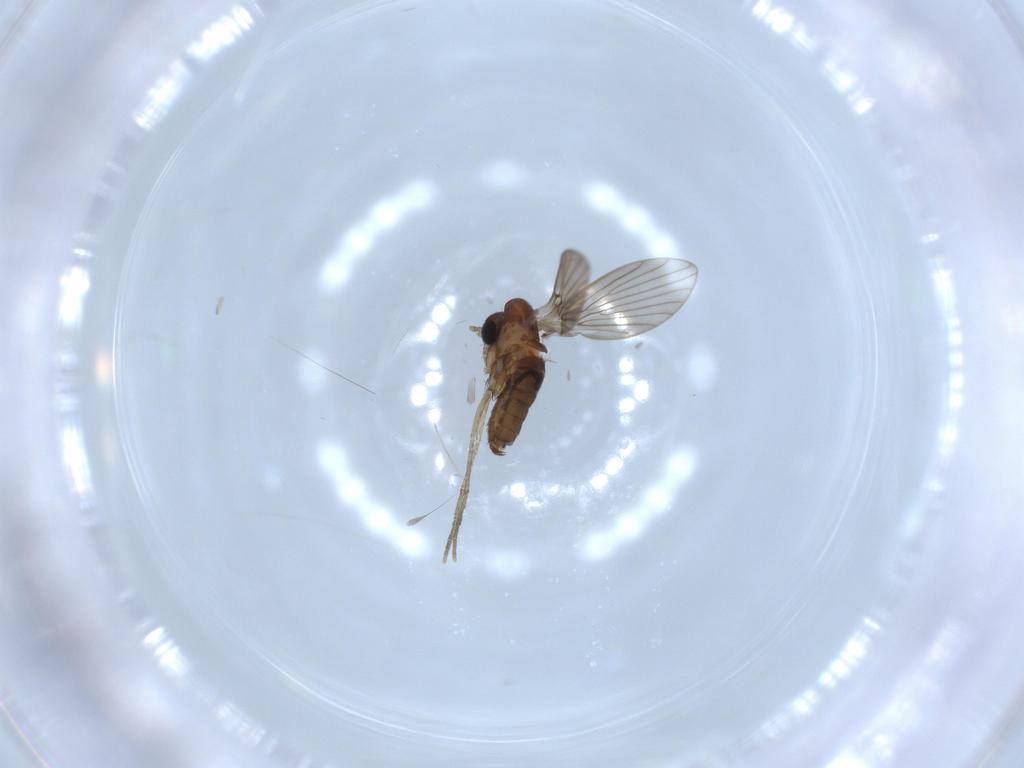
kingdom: Animalia
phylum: Arthropoda
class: Insecta
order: Diptera
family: Psychodidae
